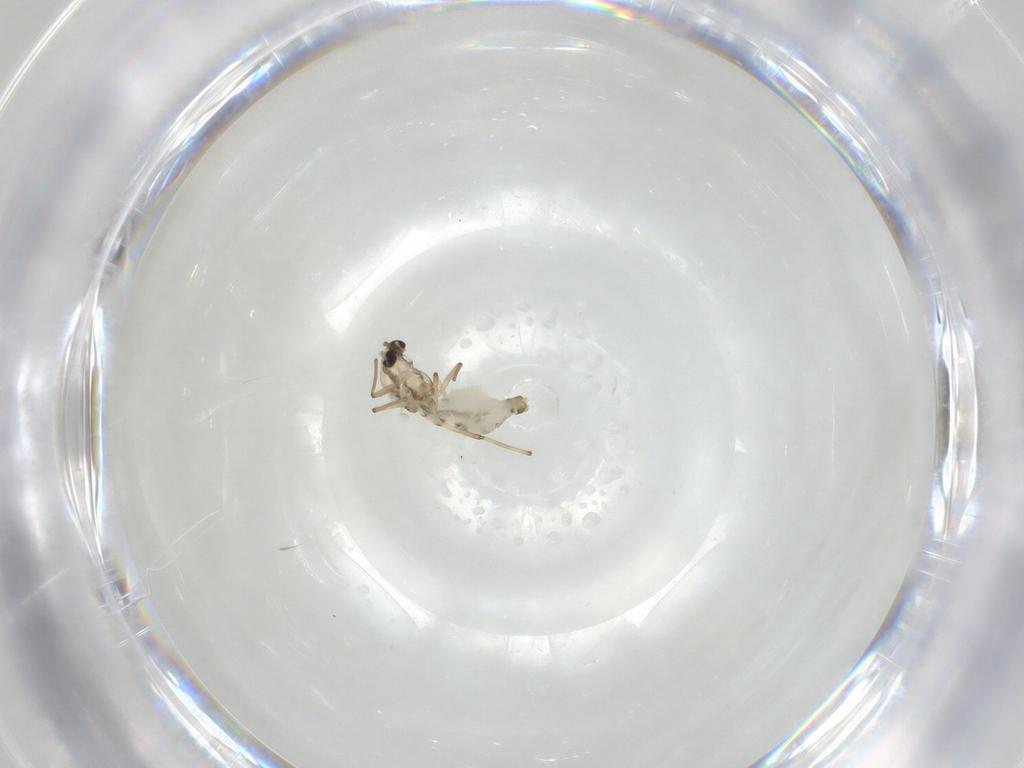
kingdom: Animalia
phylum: Arthropoda
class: Insecta
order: Diptera
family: Chironomidae
